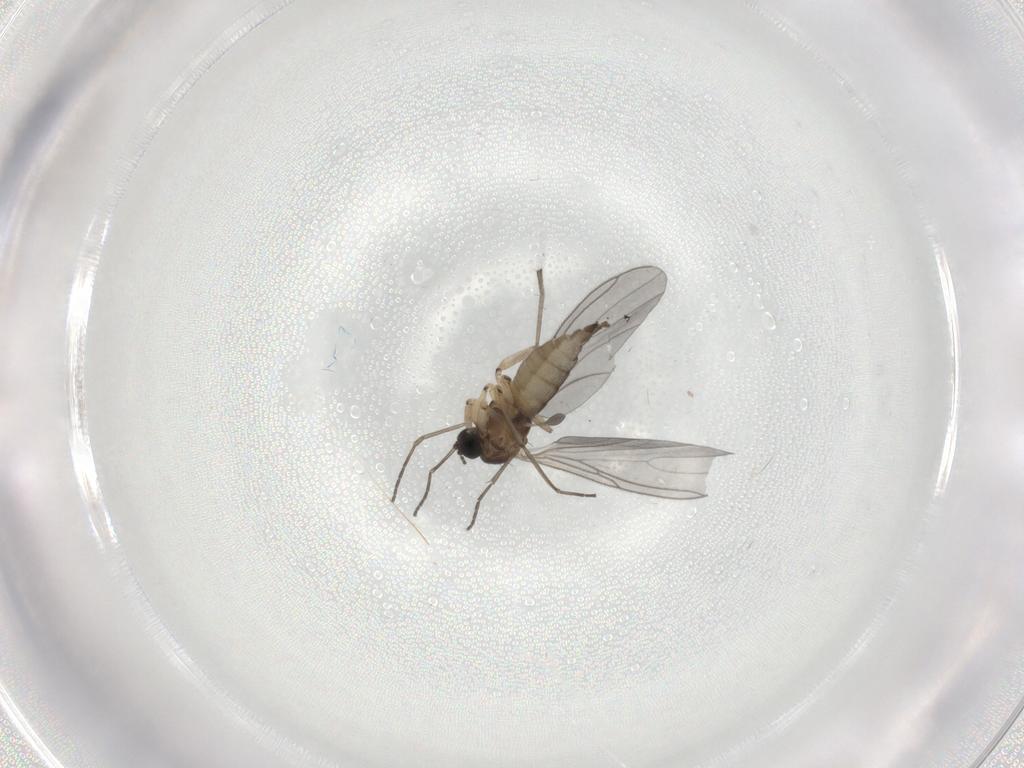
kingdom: Animalia
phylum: Arthropoda
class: Insecta
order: Diptera
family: Sciaridae
